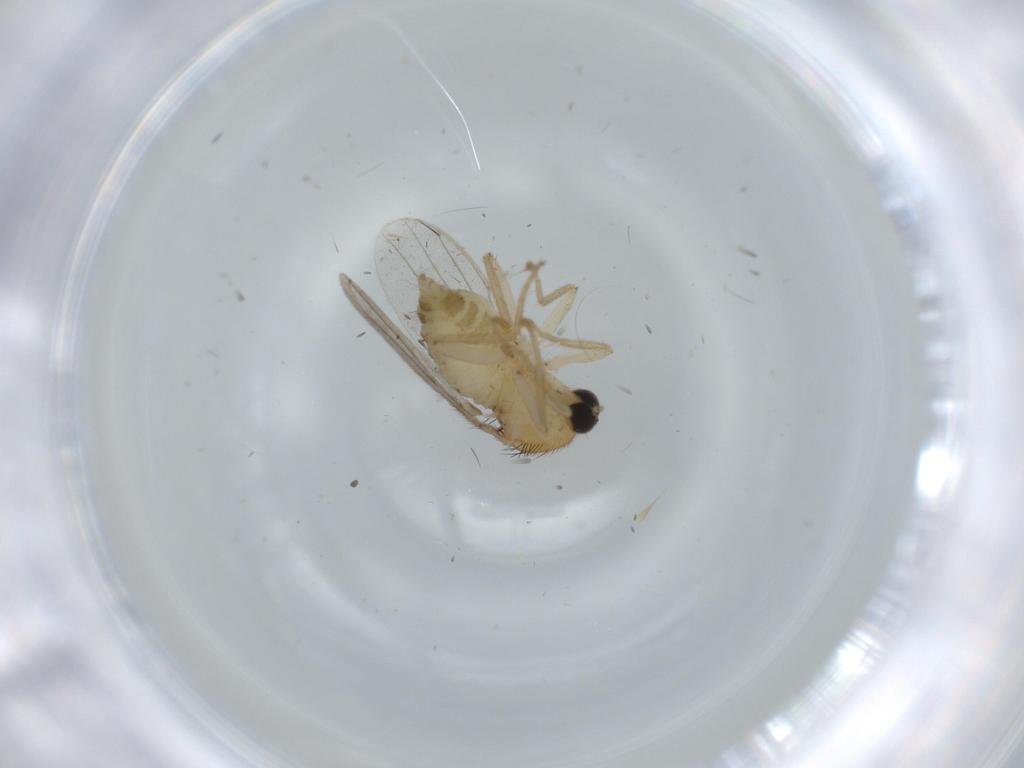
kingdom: Animalia
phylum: Arthropoda
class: Insecta
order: Diptera
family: Hybotidae
